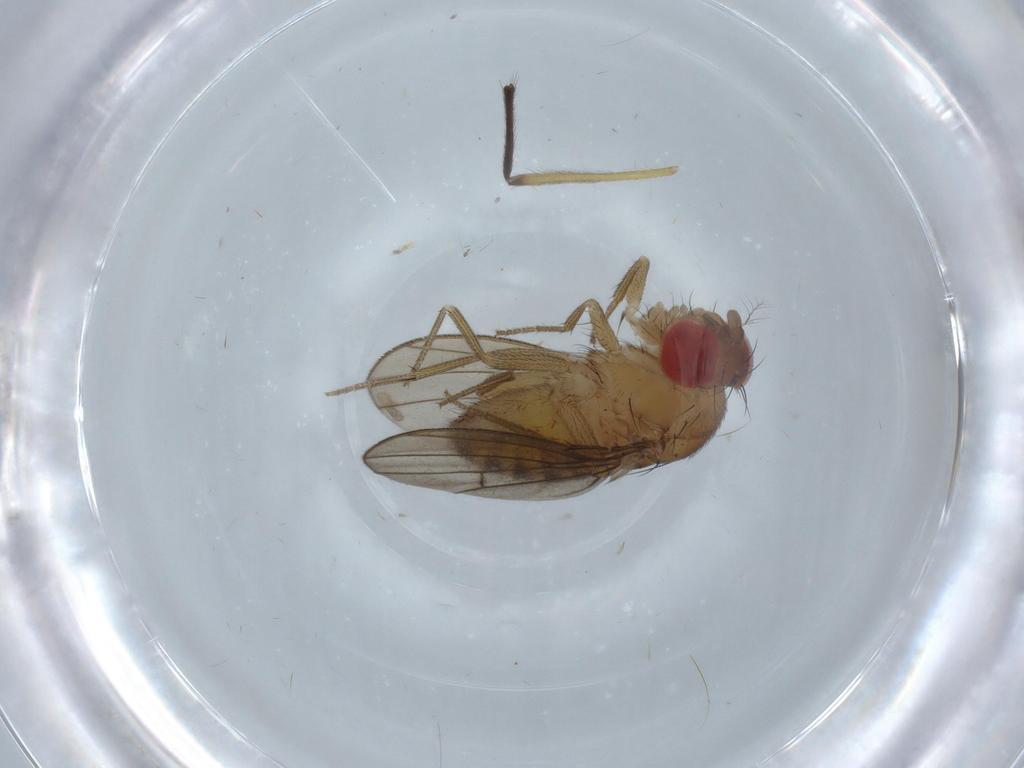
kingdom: Animalia
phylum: Arthropoda
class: Insecta
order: Diptera
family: Drosophilidae
